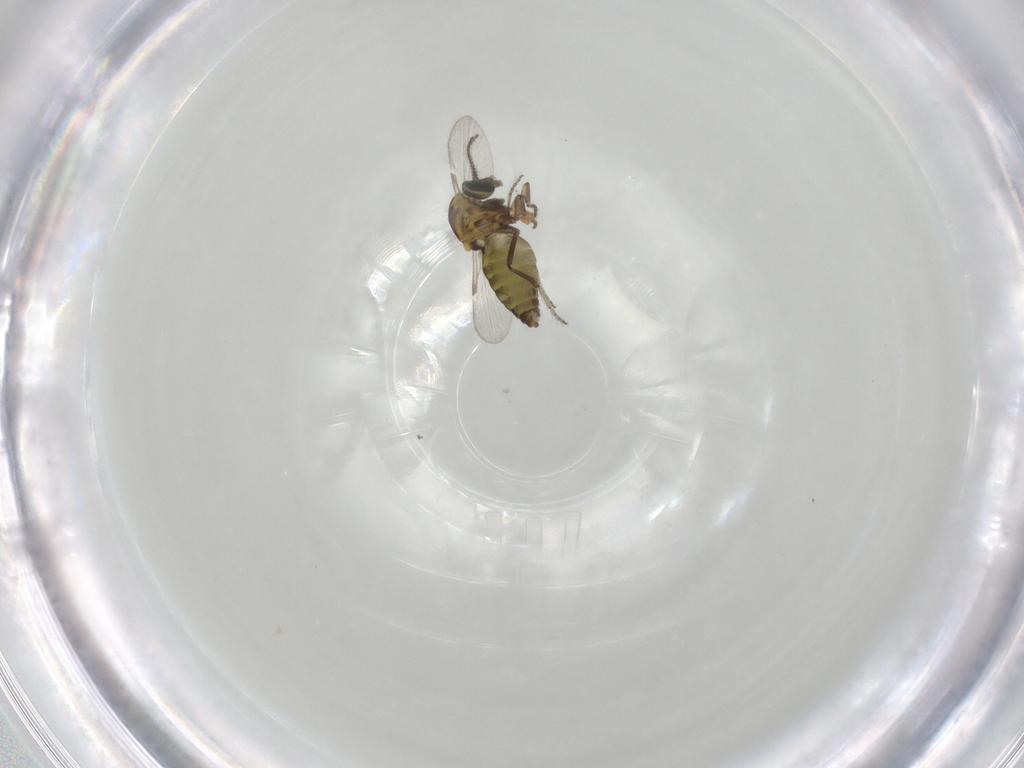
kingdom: Animalia
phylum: Arthropoda
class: Insecta
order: Diptera
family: Ceratopogonidae
